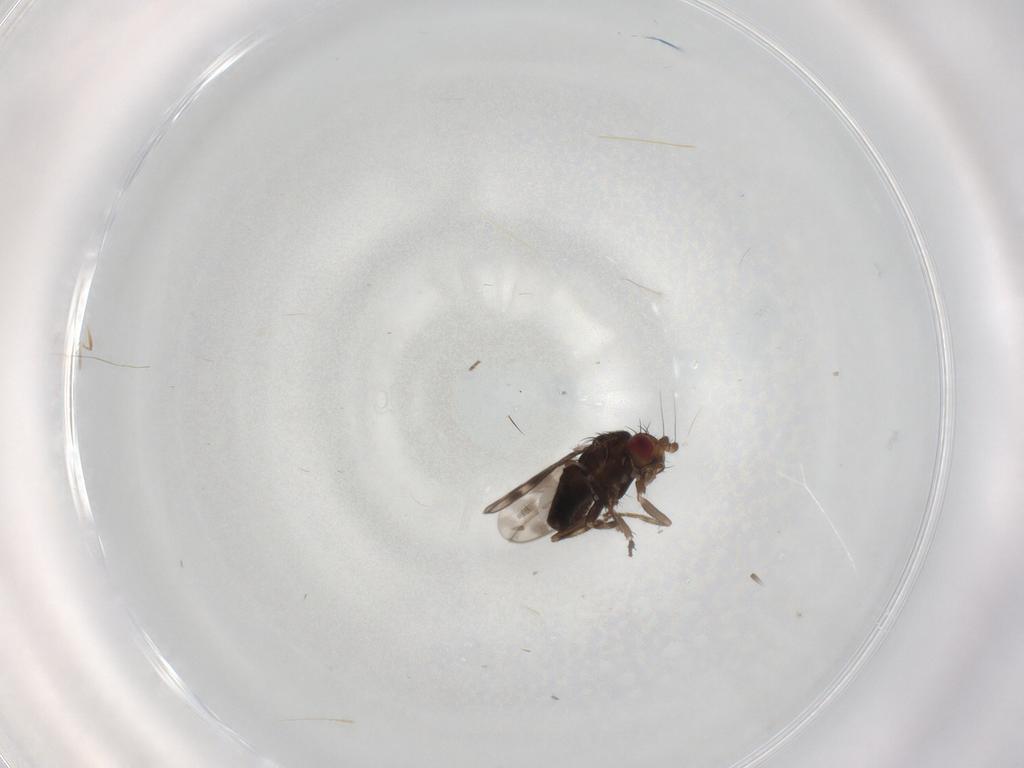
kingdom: Animalia
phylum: Arthropoda
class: Insecta
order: Diptera
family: Sphaeroceridae
